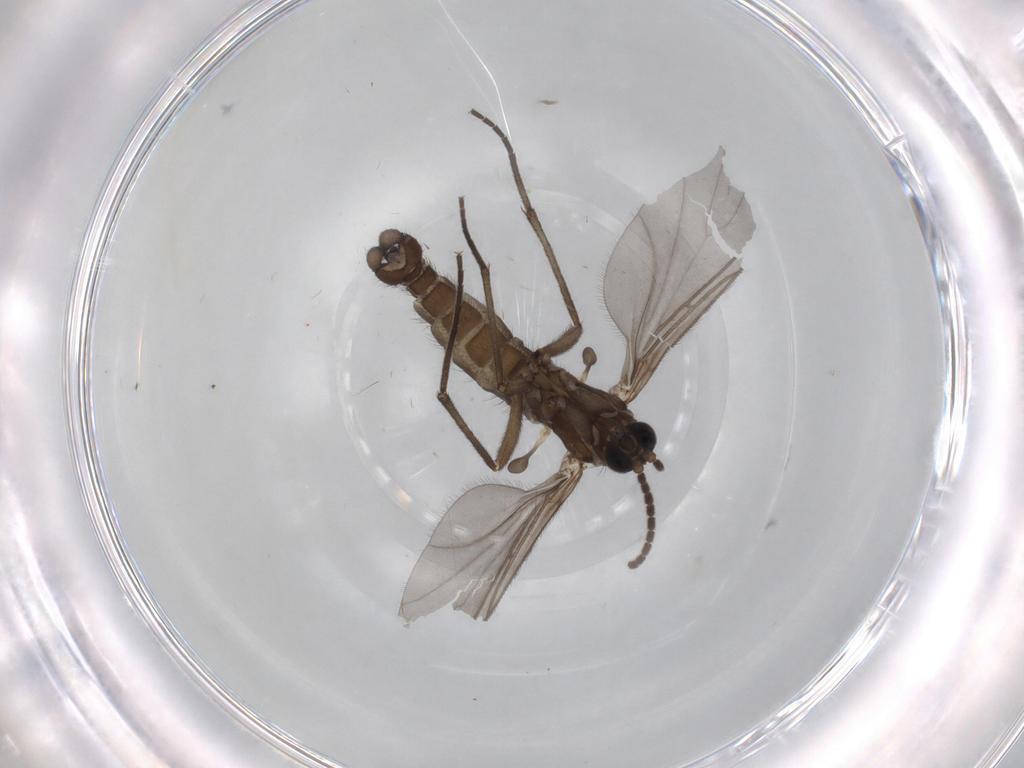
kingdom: Animalia
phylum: Arthropoda
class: Insecta
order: Diptera
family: Sciaridae
